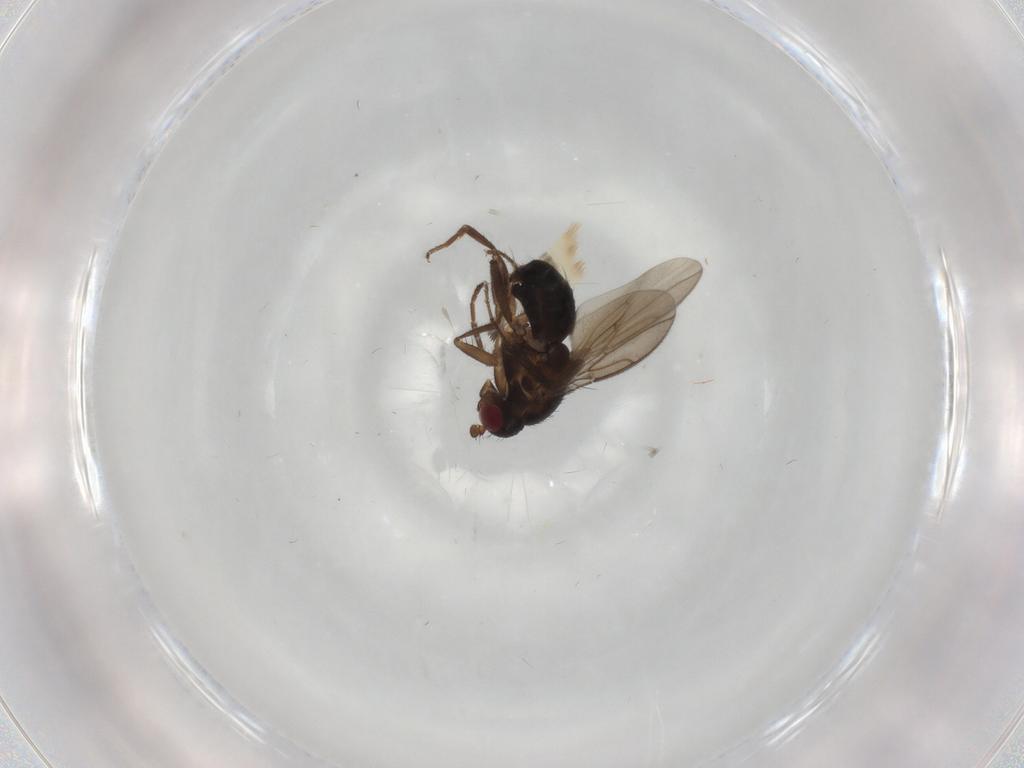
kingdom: Animalia
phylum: Arthropoda
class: Insecta
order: Diptera
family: Sphaeroceridae
